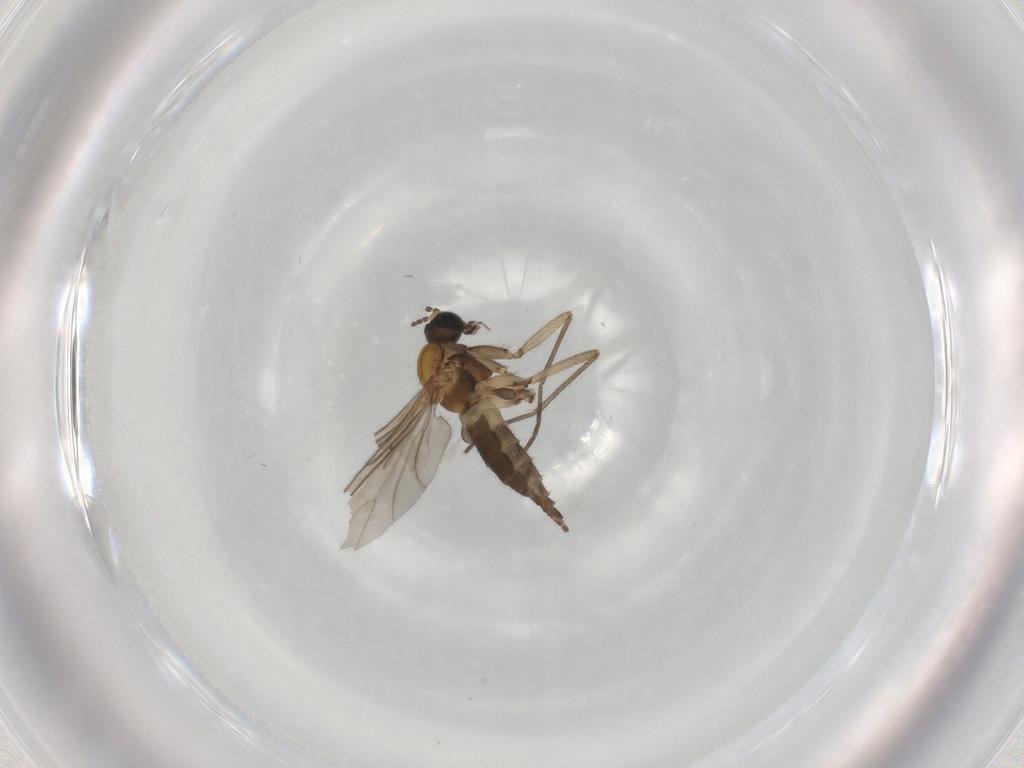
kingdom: Animalia
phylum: Arthropoda
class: Insecta
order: Diptera
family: Sciaridae
